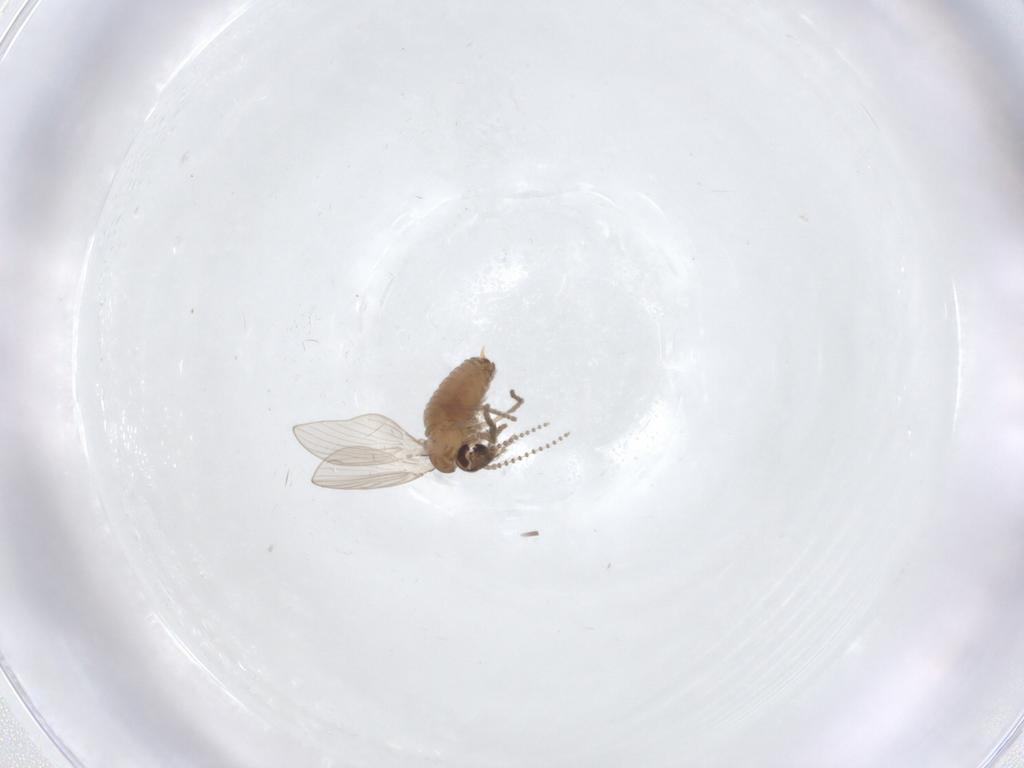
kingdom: Animalia
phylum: Arthropoda
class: Insecta
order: Diptera
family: Psychodidae
